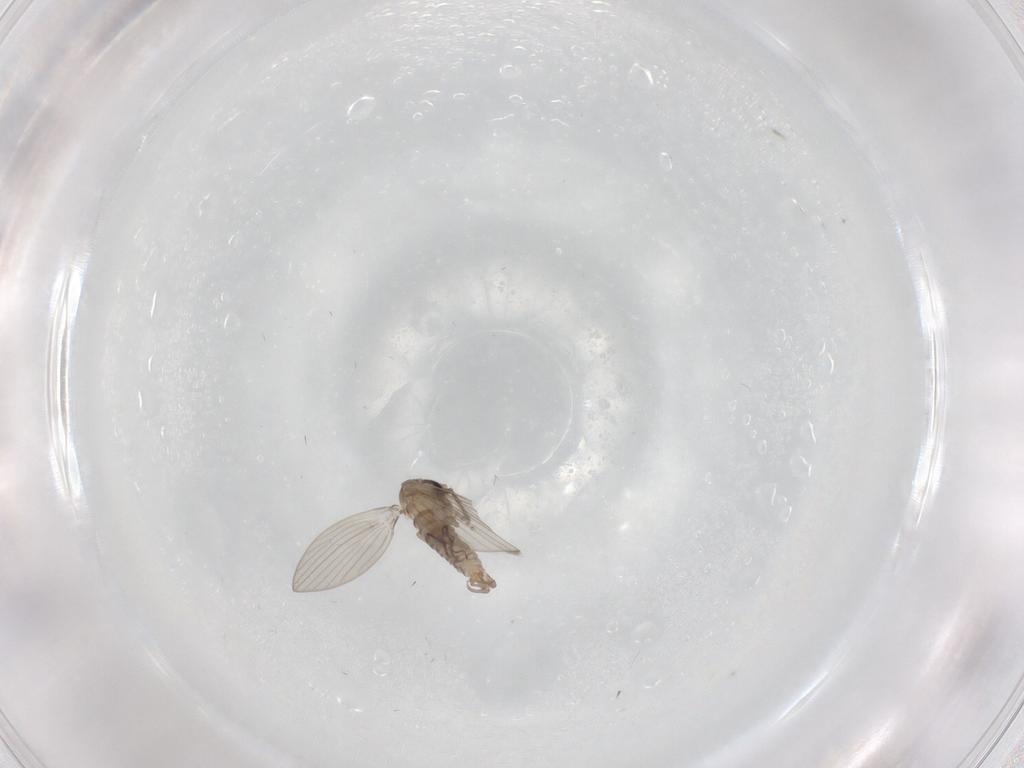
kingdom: Animalia
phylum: Arthropoda
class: Insecta
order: Diptera
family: Psychodidae
